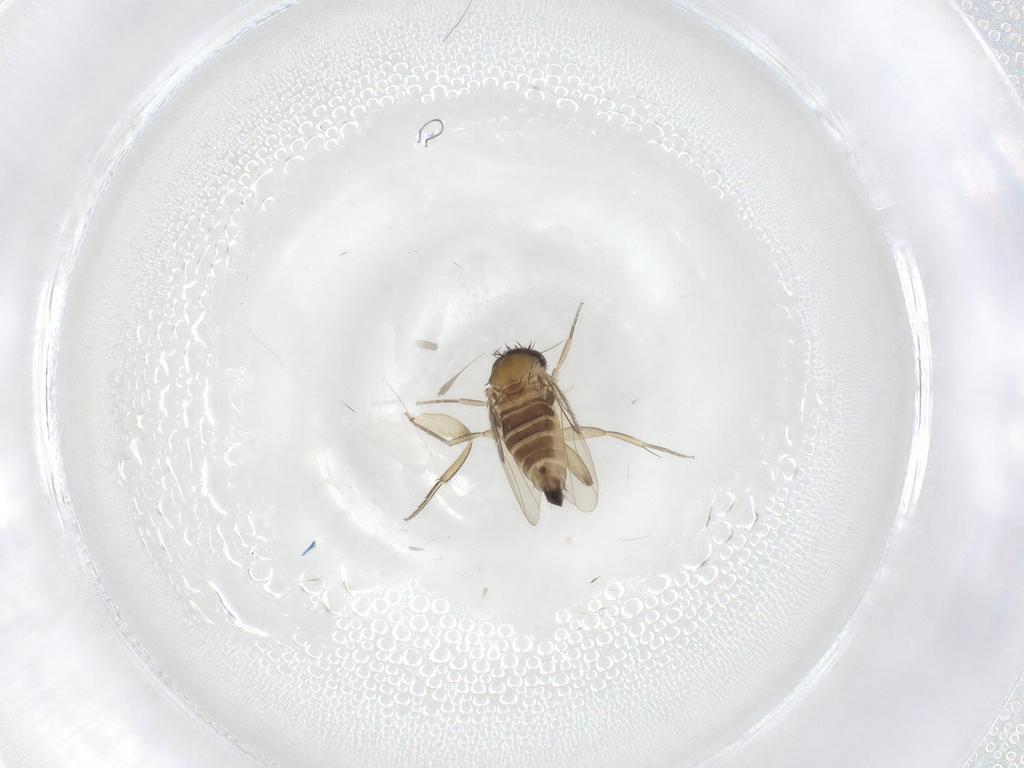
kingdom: Animalia
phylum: Arthropoda
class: Insecta
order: Diptera
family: Phoridae
